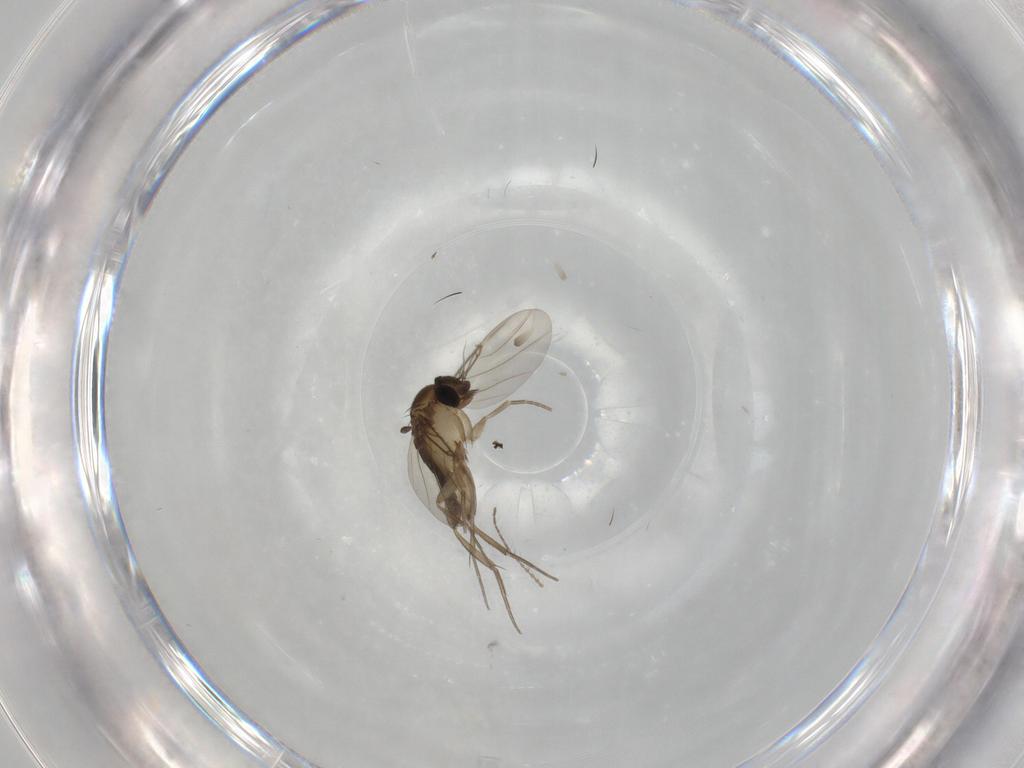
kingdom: Animalia
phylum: Arthropoda
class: Insecta
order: Diptera
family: Phoridae
